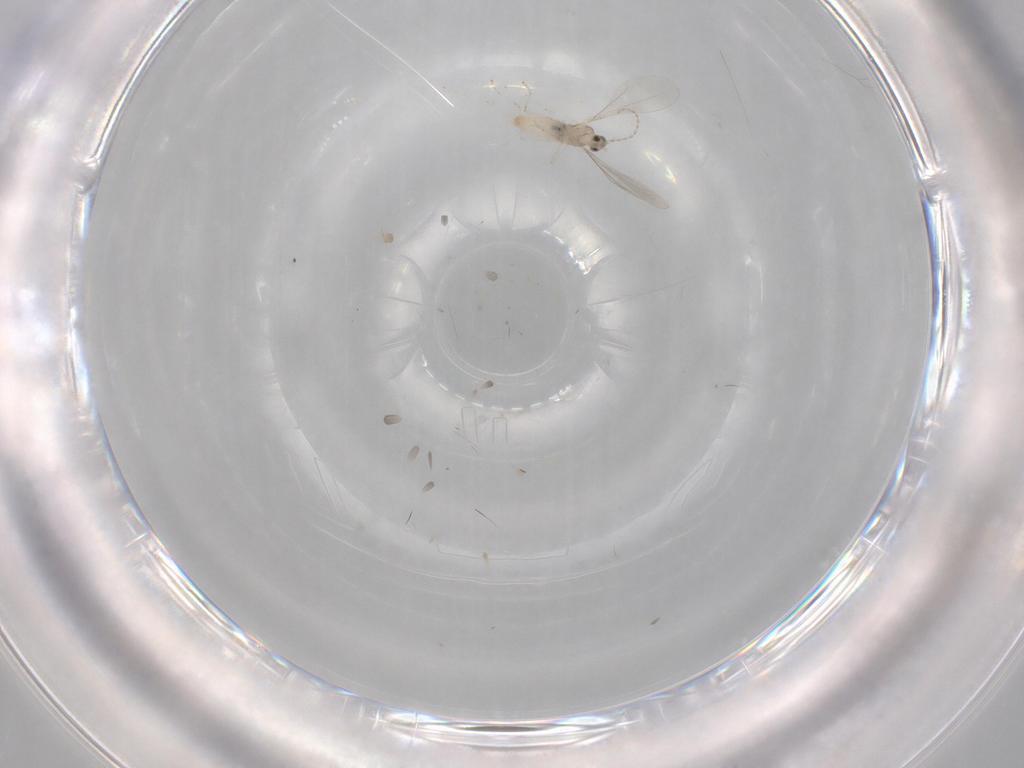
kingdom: Animalia
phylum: Arthropoda
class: Insecta
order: Diptera
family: Cecidomyiidae
